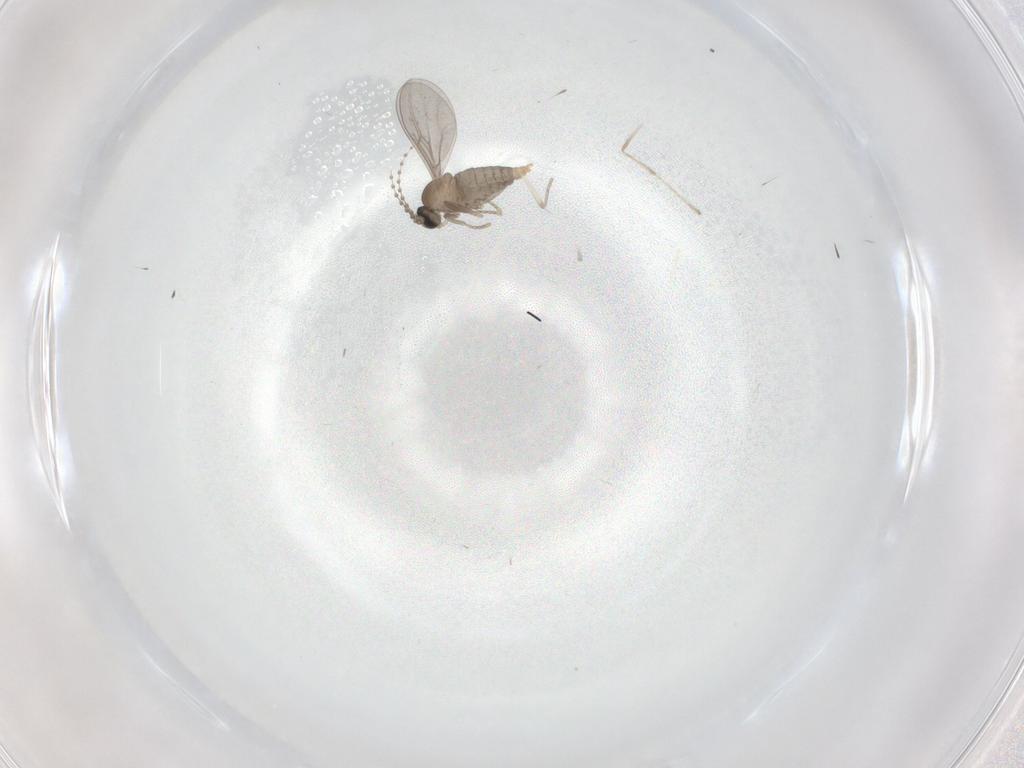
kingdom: Animalia
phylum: Arthropoda
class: Insecta
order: Diptera
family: Cecidomyiidae
